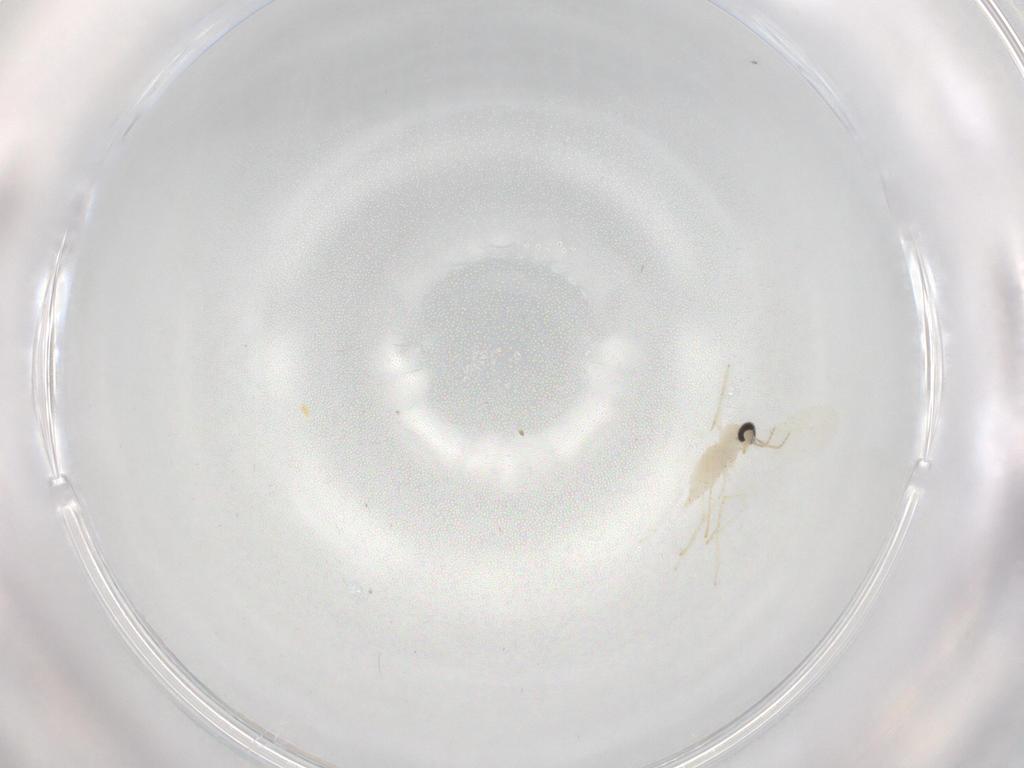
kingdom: Animalia
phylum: Arthropoda
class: Insecta
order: Diptera
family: Cecidomyiidae
